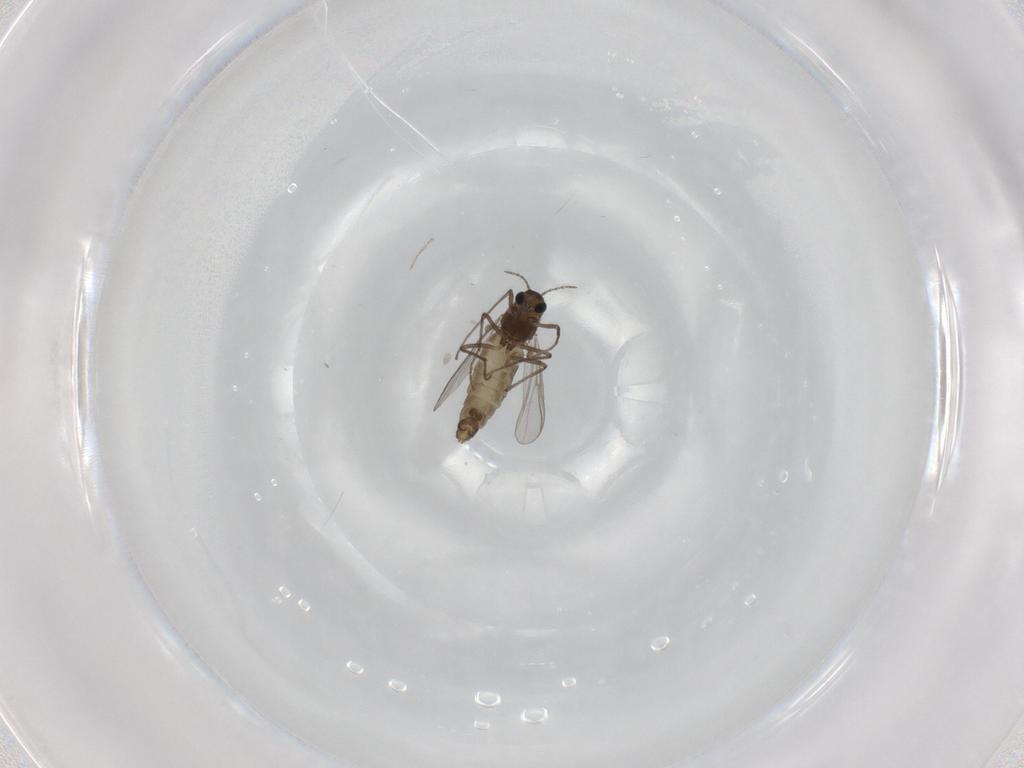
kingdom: Animalia
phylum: Arthropoda
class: Insecta
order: Diptera
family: Chironomidae
